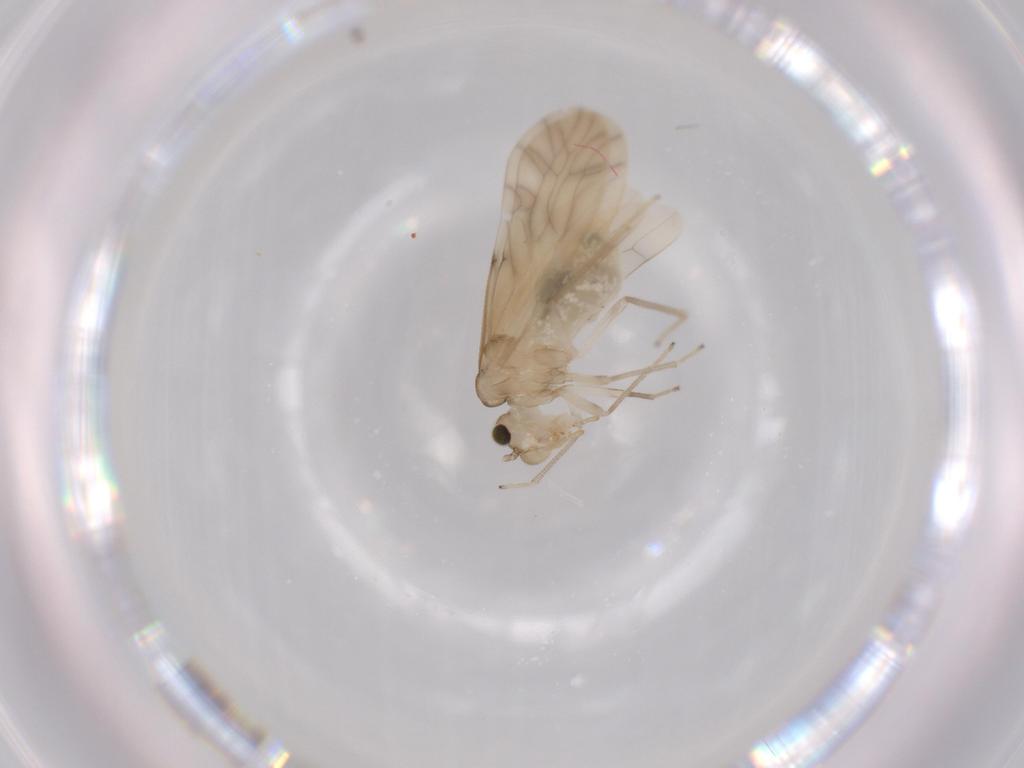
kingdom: Animalia
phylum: Arthropoda
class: Insecta
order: Psocodea
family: Caeciliusidae
